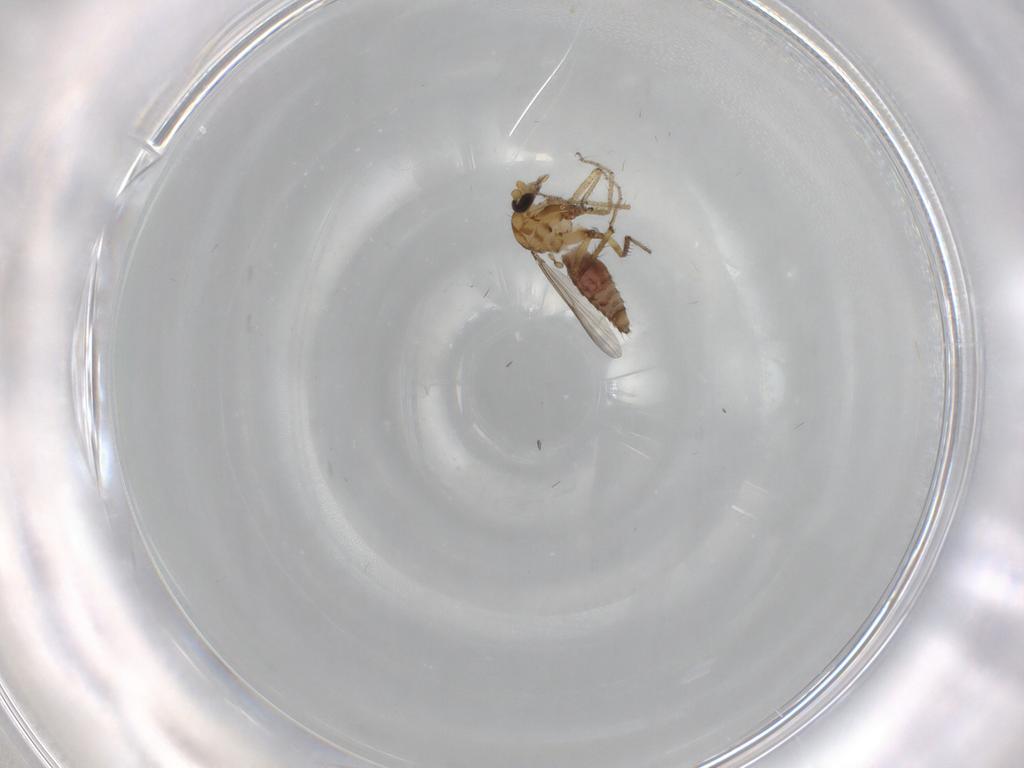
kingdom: Animalia
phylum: Arthropoda
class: Insecta
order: Diptera
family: Ceratopogonidae
